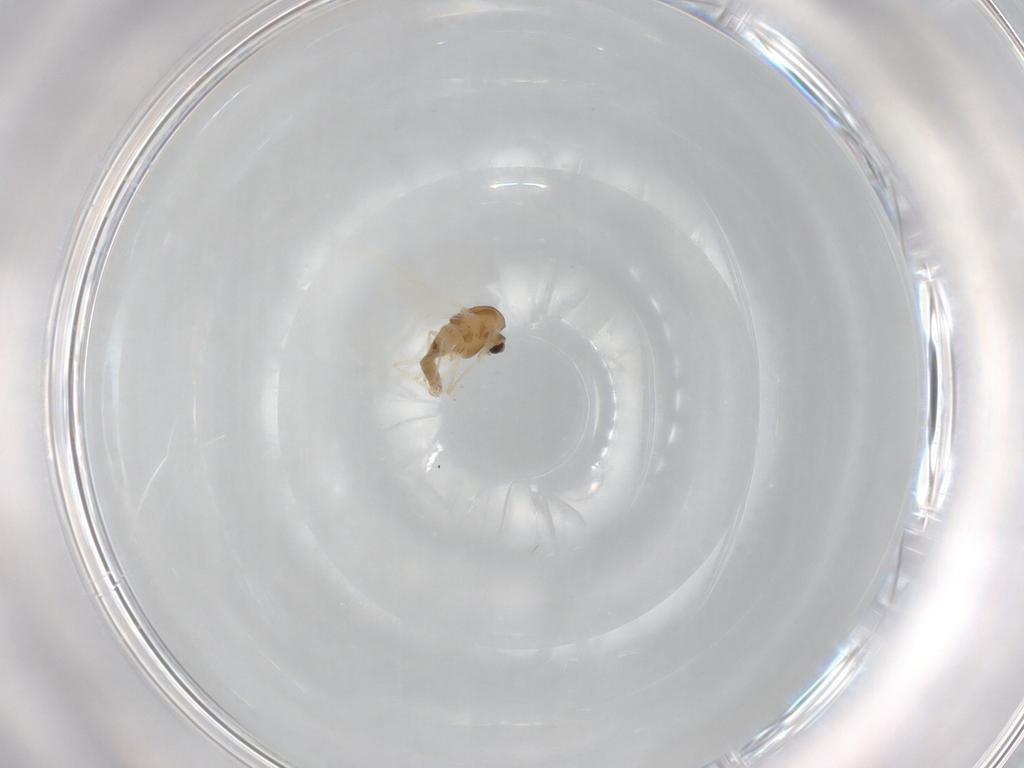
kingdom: Animalia
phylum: Arthropoda
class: Insecta
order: Diptera
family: Chironomidae
